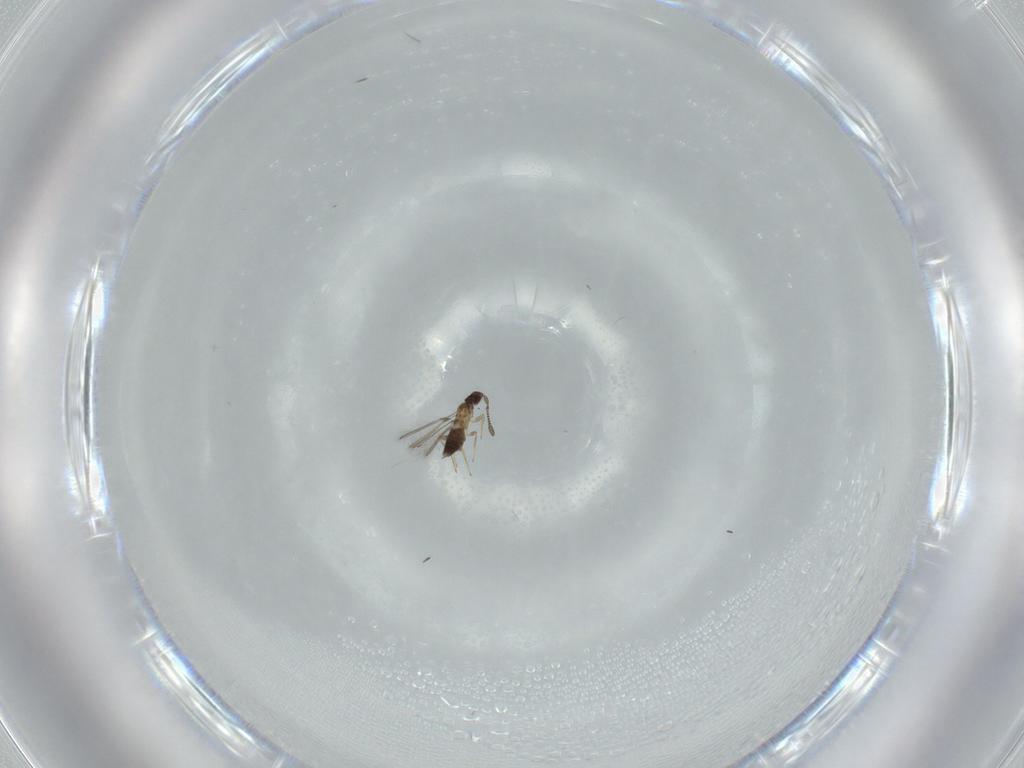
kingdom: Animalia
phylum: Arthropoda
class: Insecta
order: Hymenoptera
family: Mymaridae
